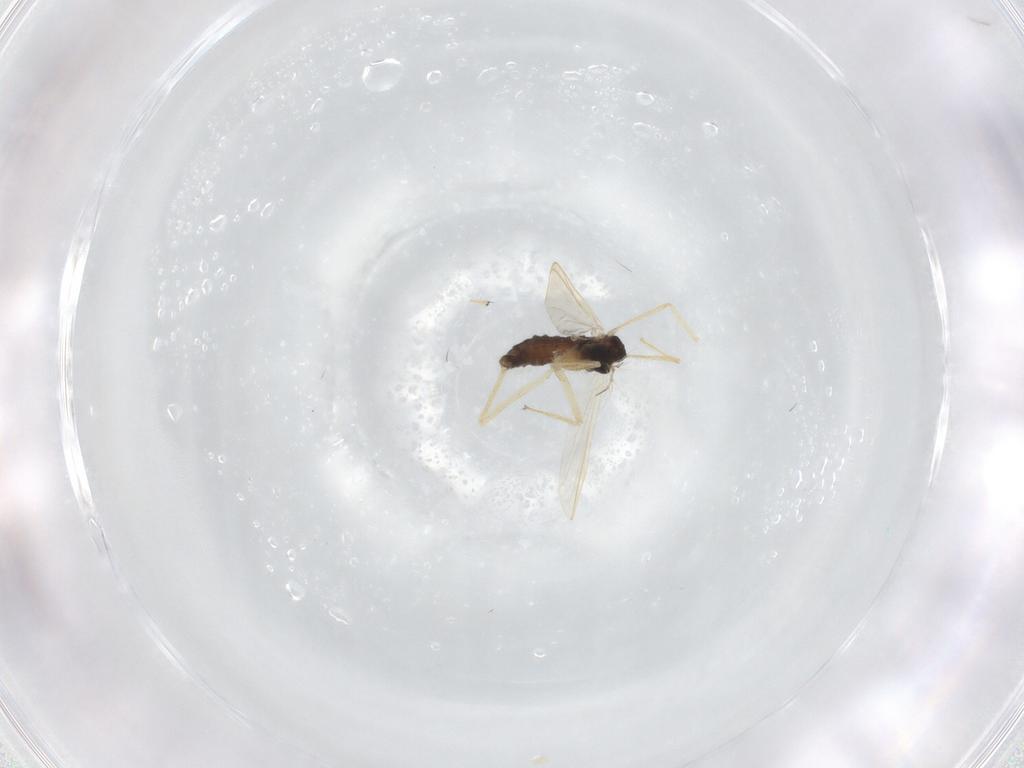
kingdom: Animalia
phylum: Arthropoda
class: Insecta
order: Diptera
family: Chironomidae
